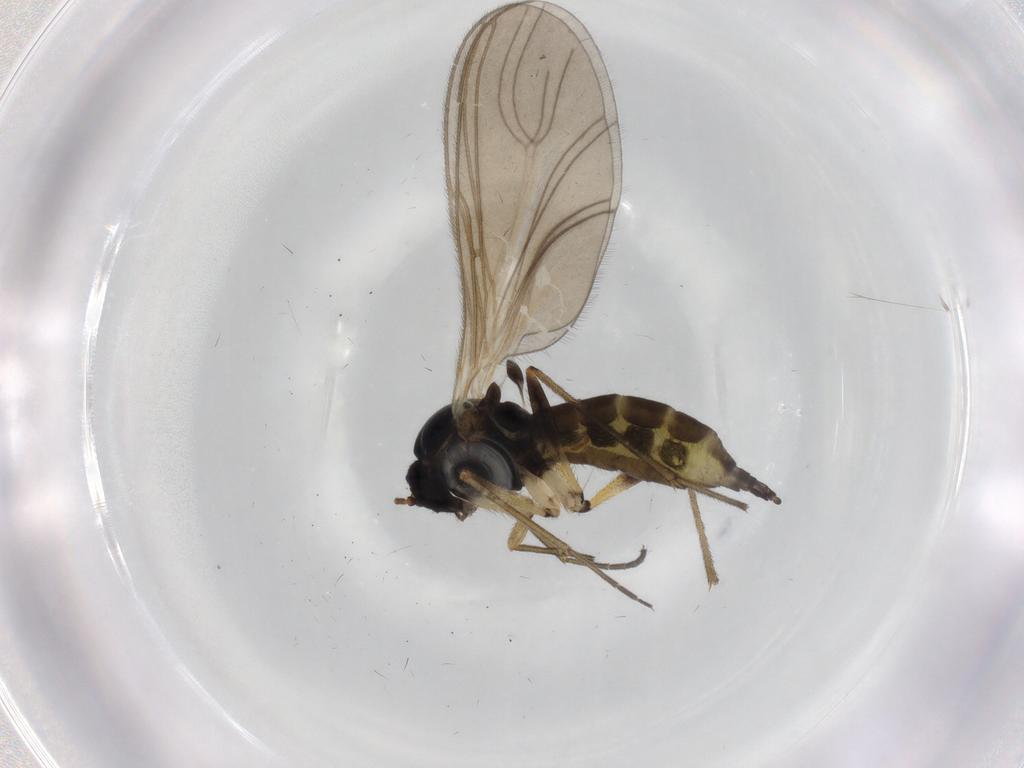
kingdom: Animalia
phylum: Arthropoda
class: Insecta
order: Diptera
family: Sciaridae
